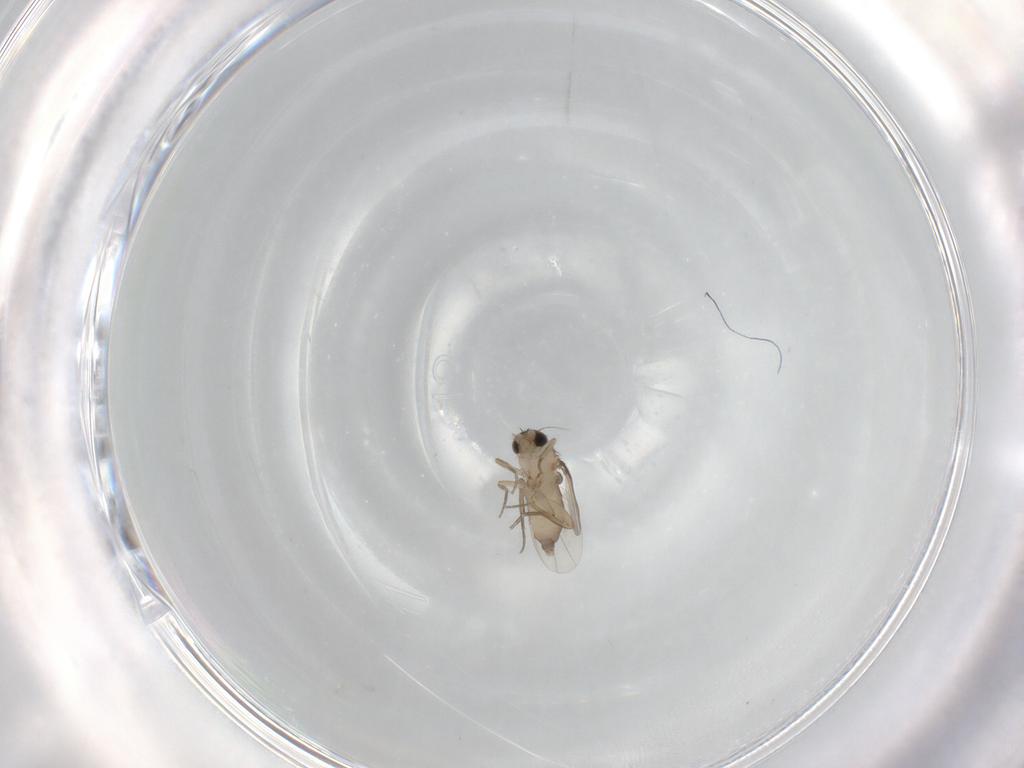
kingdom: Animalia
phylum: Arthropoda
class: Insecta
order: Diptera
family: Phoridae
